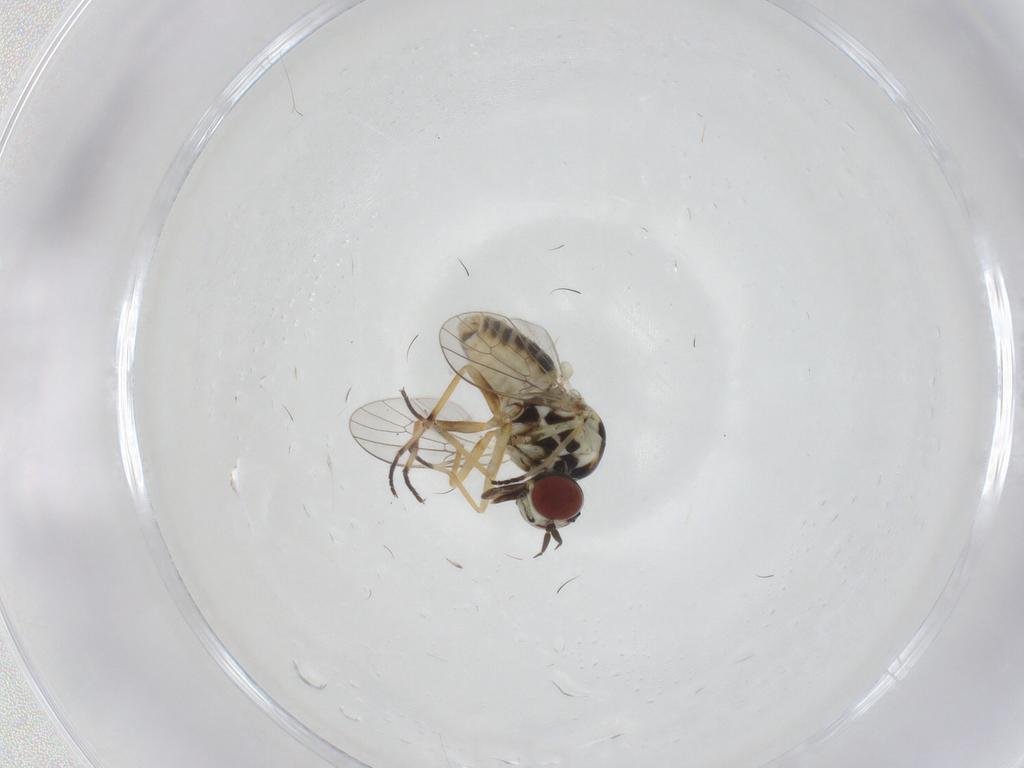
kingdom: Animalia
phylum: Arthropoda
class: Insecta
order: Diptera
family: Mythicomyiidae
